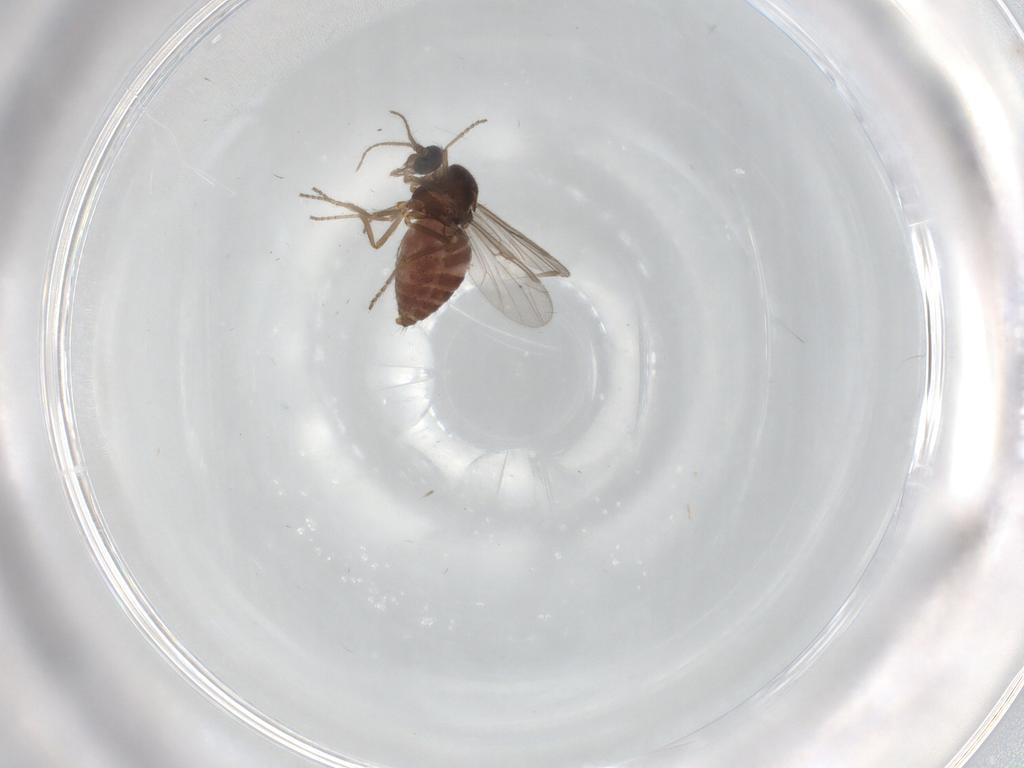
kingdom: Animalia
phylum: Arthropoda
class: Insecta
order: Diptera
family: Ceratopogonidae
